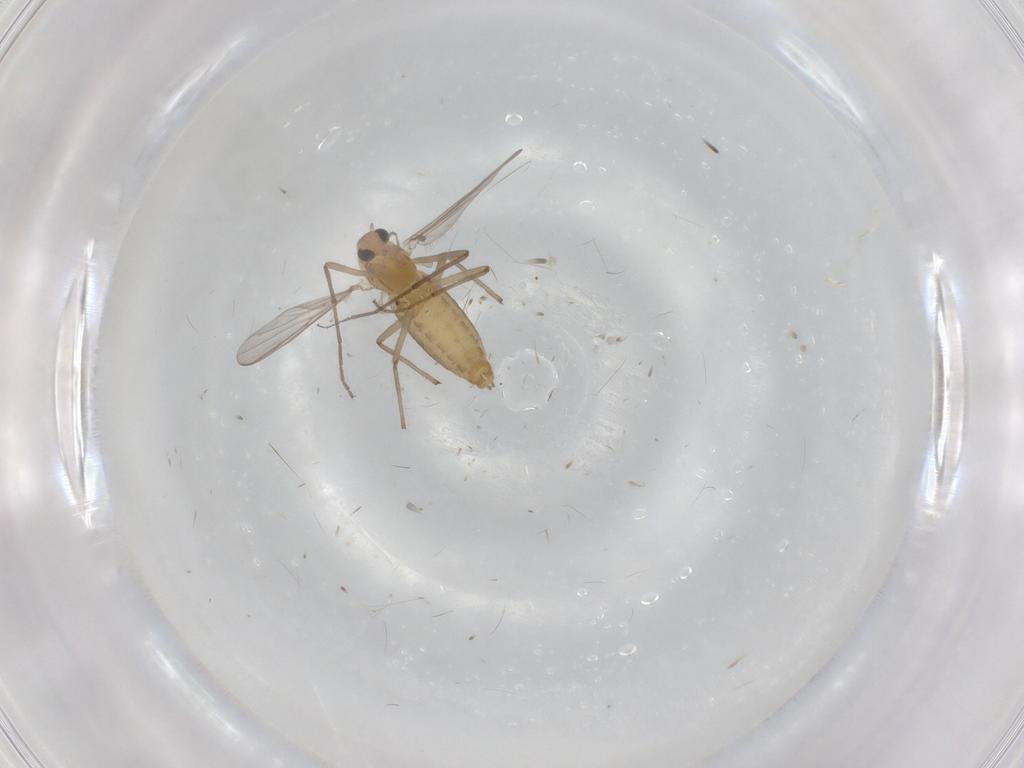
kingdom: Animalia
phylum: Arthropoda
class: Insecta
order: Diptera
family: Chironomidae
